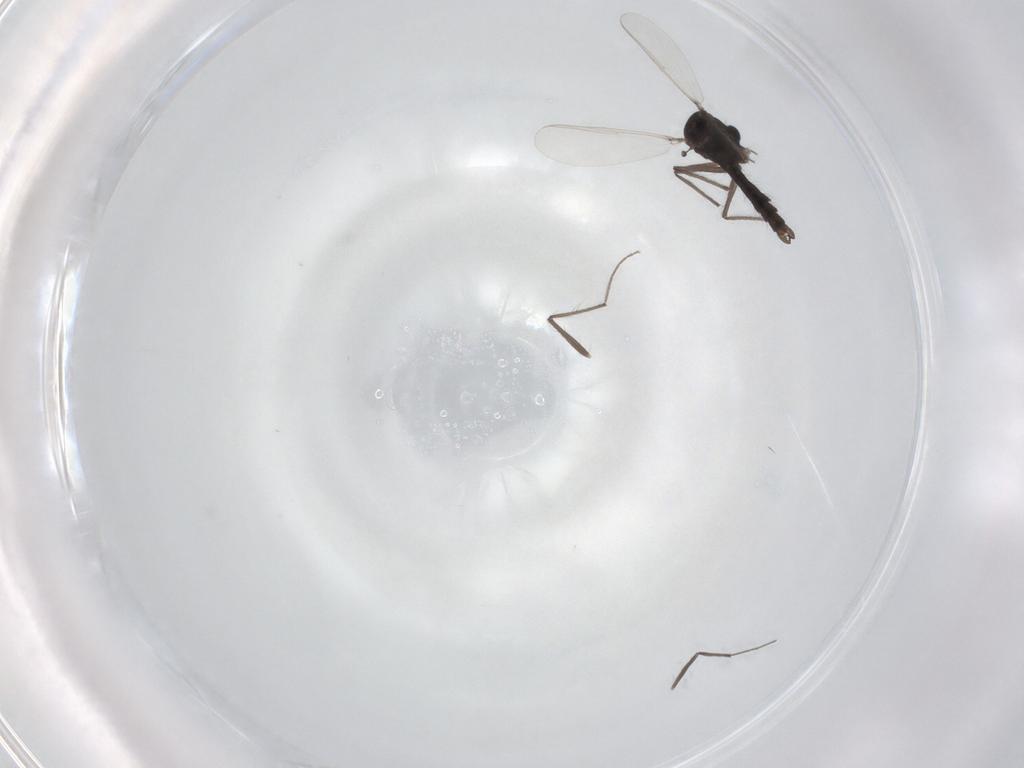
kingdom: Animalia
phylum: Arthropoda
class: Insecta
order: Diptera
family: Chironomidae
